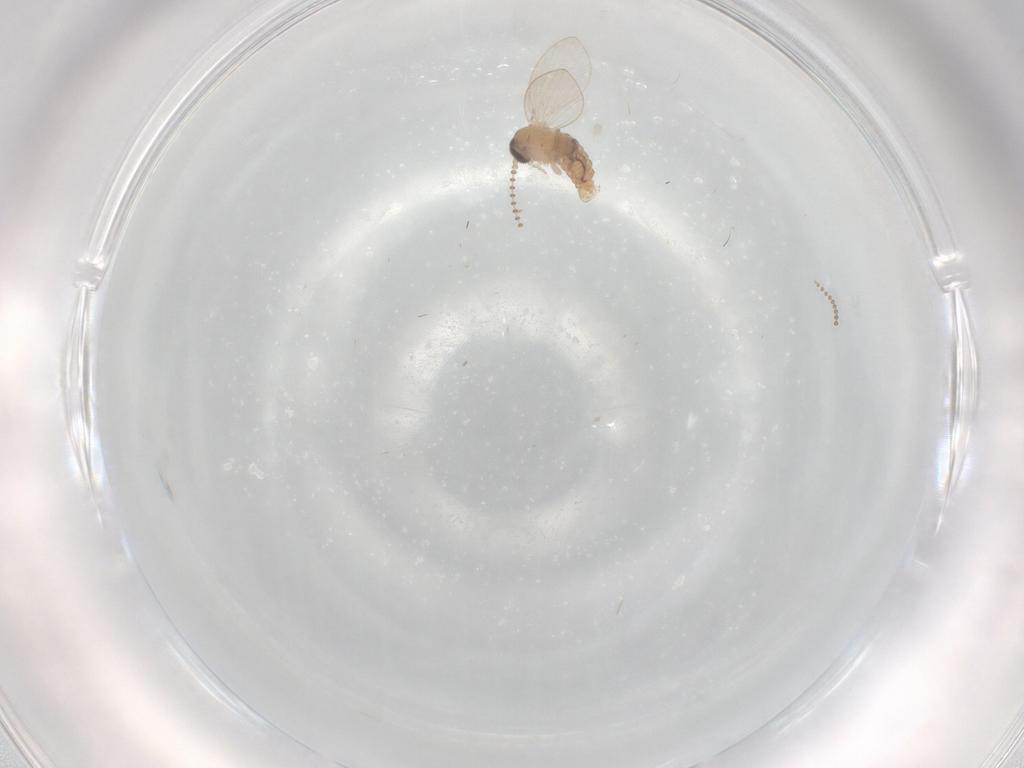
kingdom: Animalia
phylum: Arthropoda
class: Insecta
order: Diptera
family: Psychodidae
